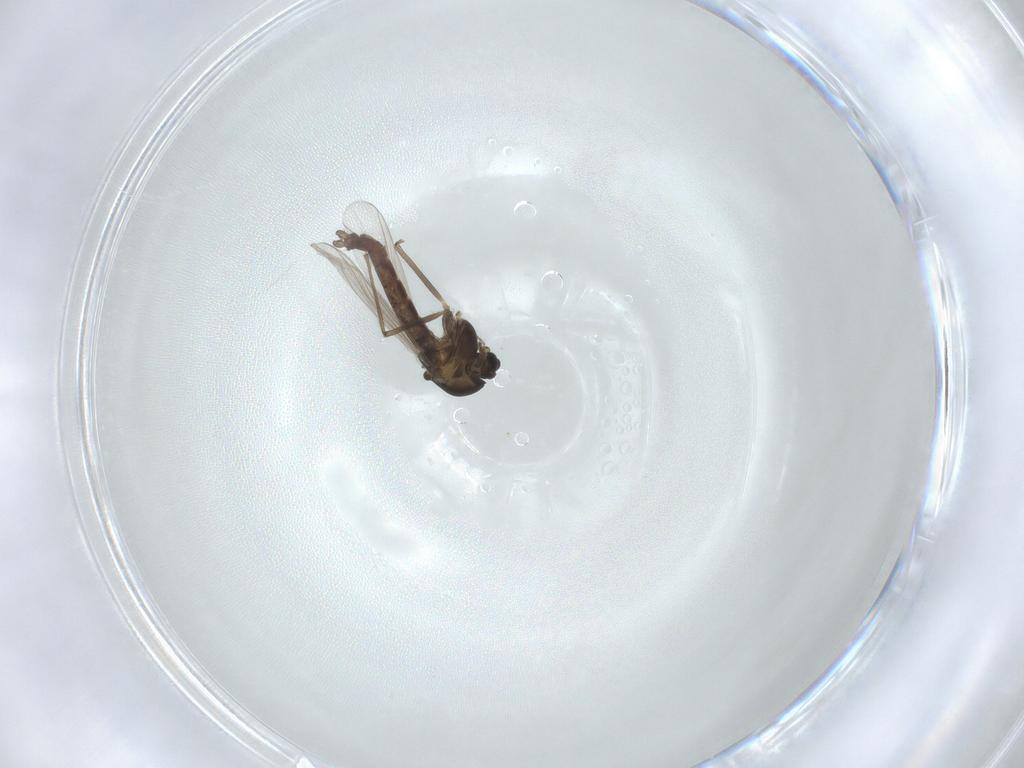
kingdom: Animalia
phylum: Arthropoda
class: Insecta
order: Diptera
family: Chironomidae
